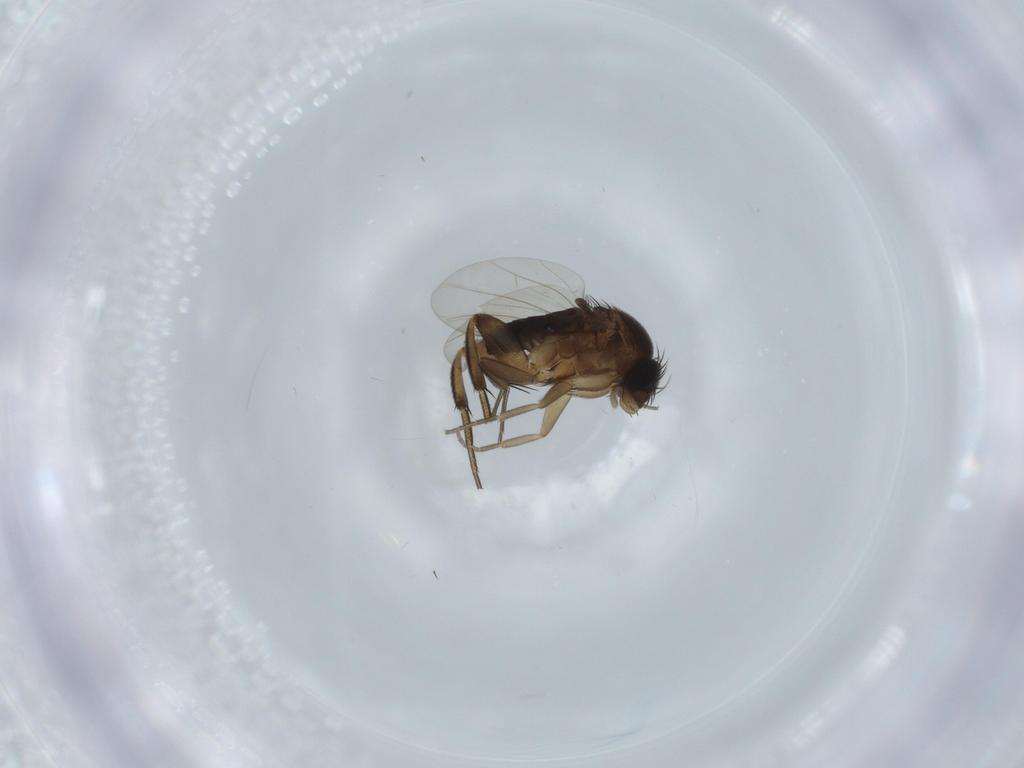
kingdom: Animalia
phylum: Arthropoda
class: Insecta
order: Diptera
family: Phoridae
